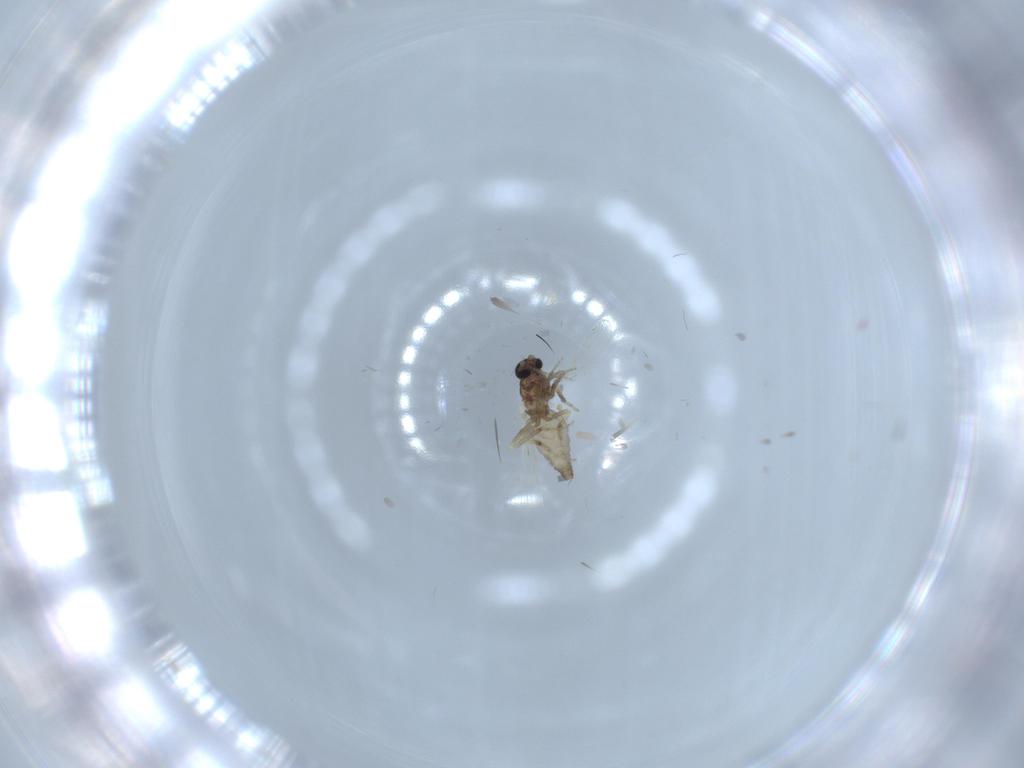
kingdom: Animalia
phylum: Arthropoda
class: Insecta
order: Diptera
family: Ceratopogonidae
